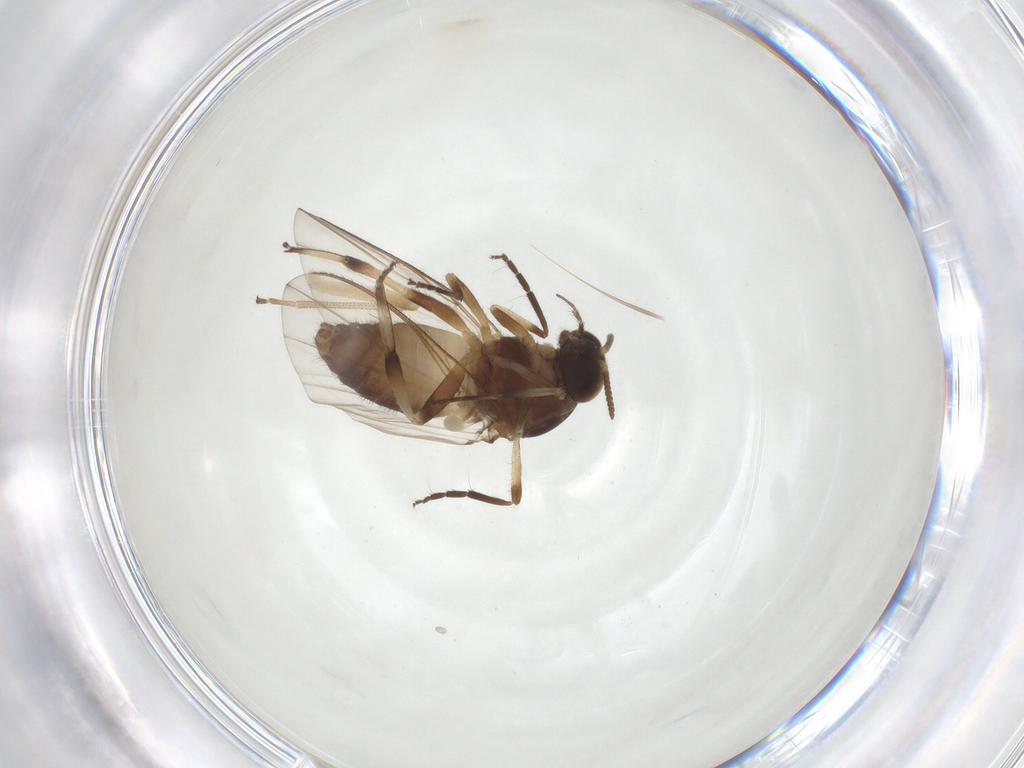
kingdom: Animalia
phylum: Arthropoda
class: Insecta
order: Diptera
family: Simuliidae
